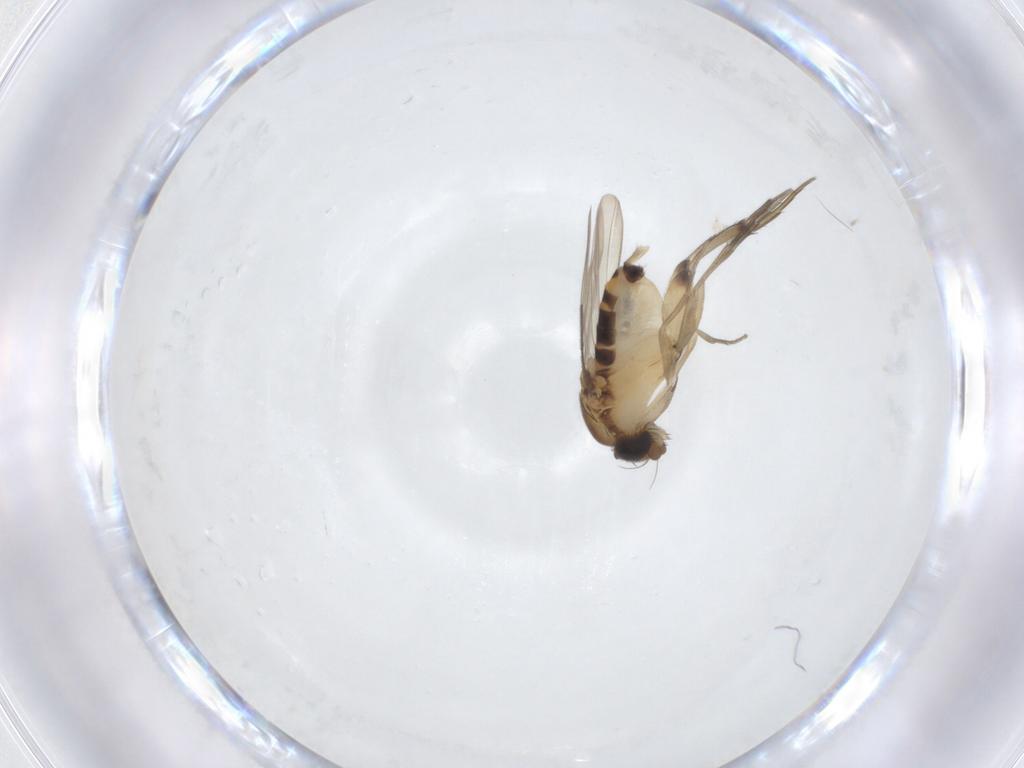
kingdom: Animalia
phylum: Arthropoda
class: Insecta
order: Diptera
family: Phoridae
